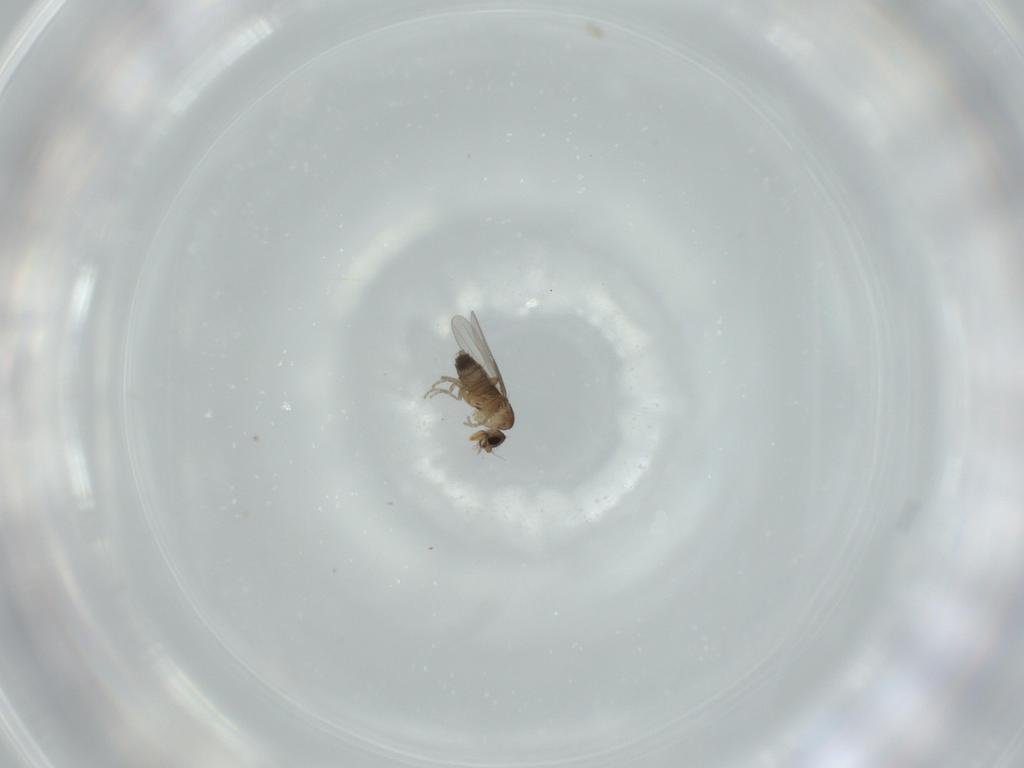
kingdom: Animalia
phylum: Arthropoda
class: Insecta
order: Diptera
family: Phoridae
